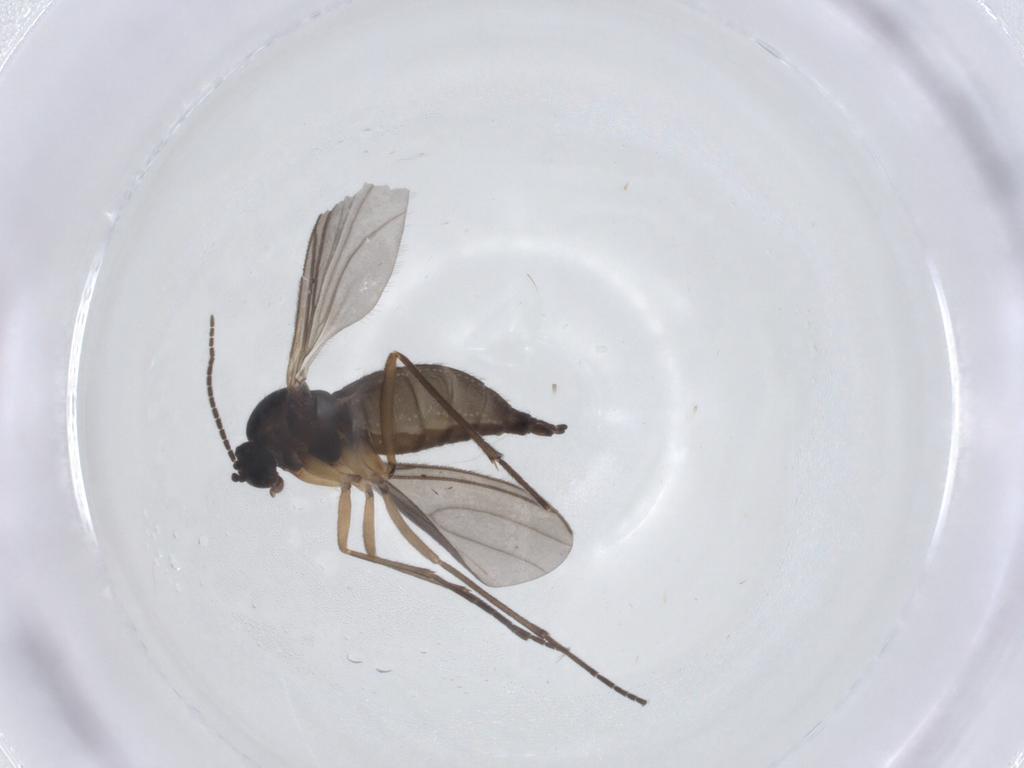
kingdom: Animalia
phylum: Arthropoda
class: Insecta
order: Diptera
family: Sciaridae
